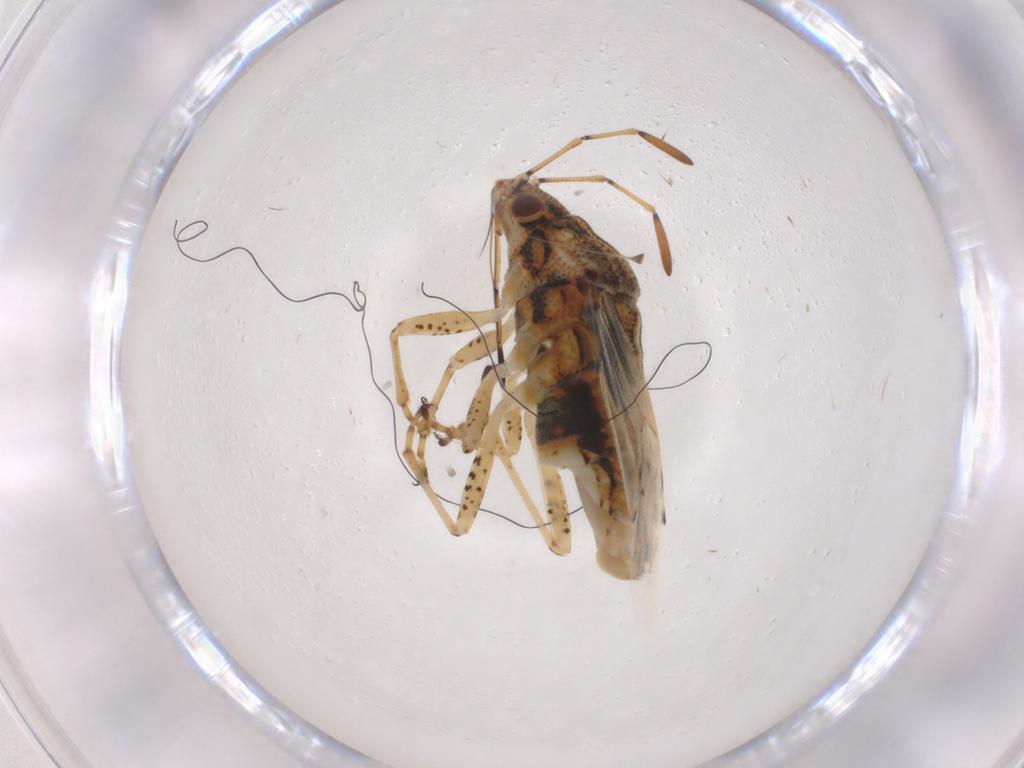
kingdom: Animalia
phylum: Arthropoda
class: Insecta
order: Hemiptera
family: Lygaeidae
